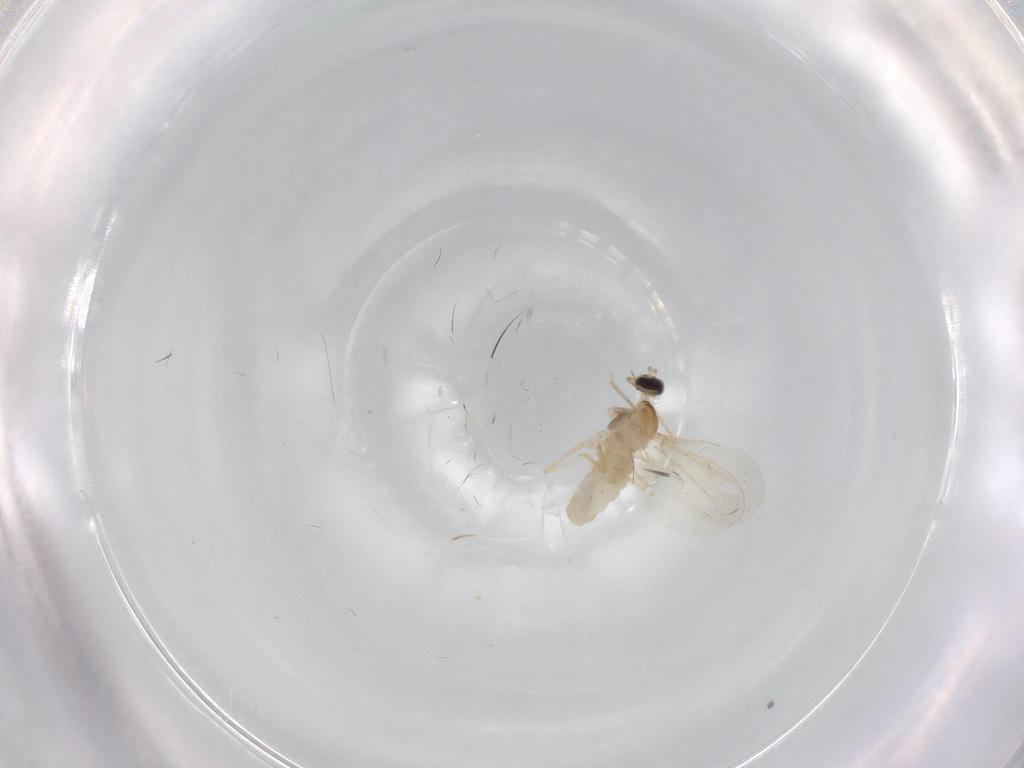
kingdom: Animalia
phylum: Arthropoda
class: Insecta
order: Diptera
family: Cecidomyiidae
